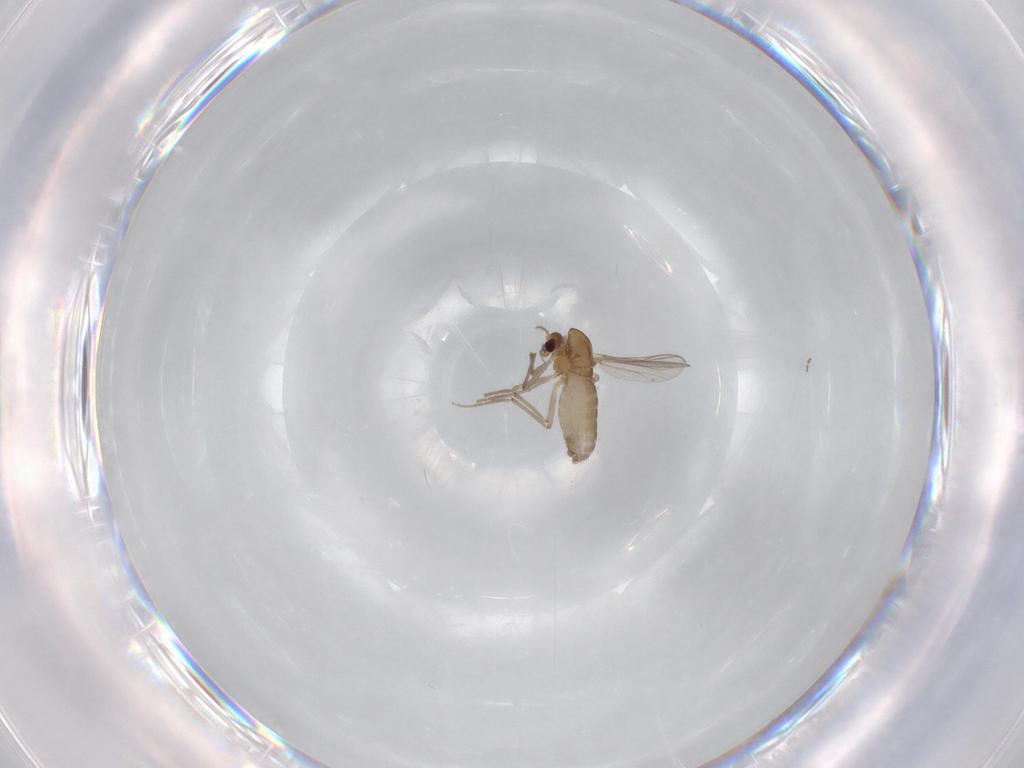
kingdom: Animalia
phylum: Arthropoda
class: Insecta
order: Diptera
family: Chironomidae
